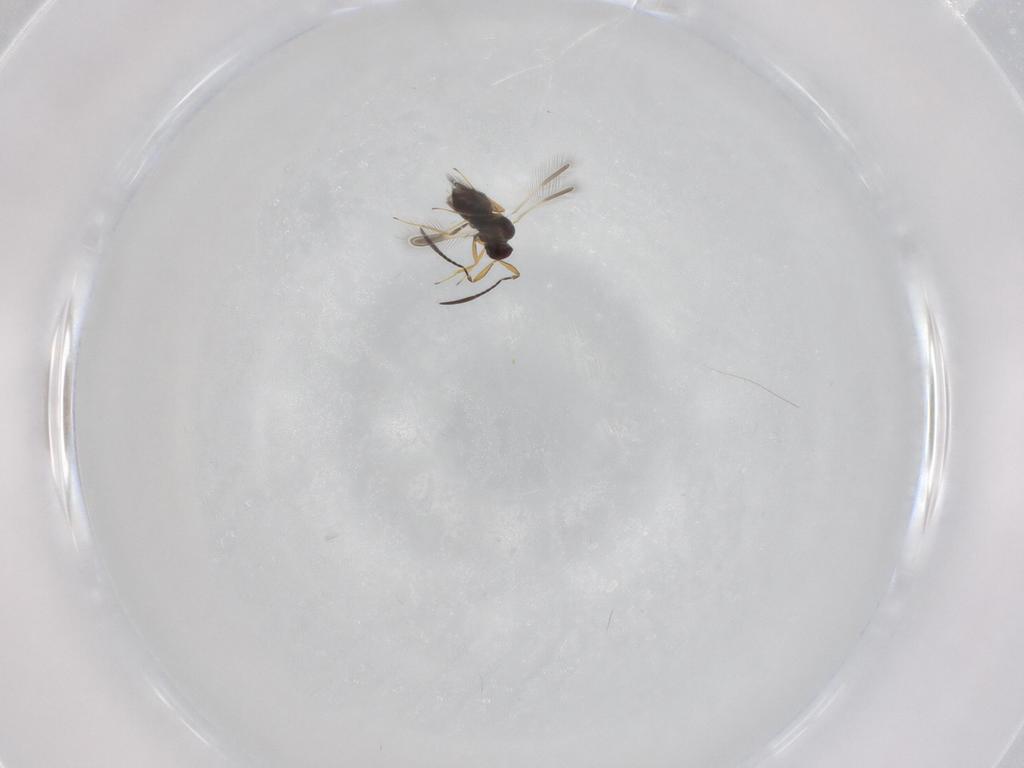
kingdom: Animalia
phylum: Arthropoda
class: Insecta
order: Hymenoptera
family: Mymaridae
